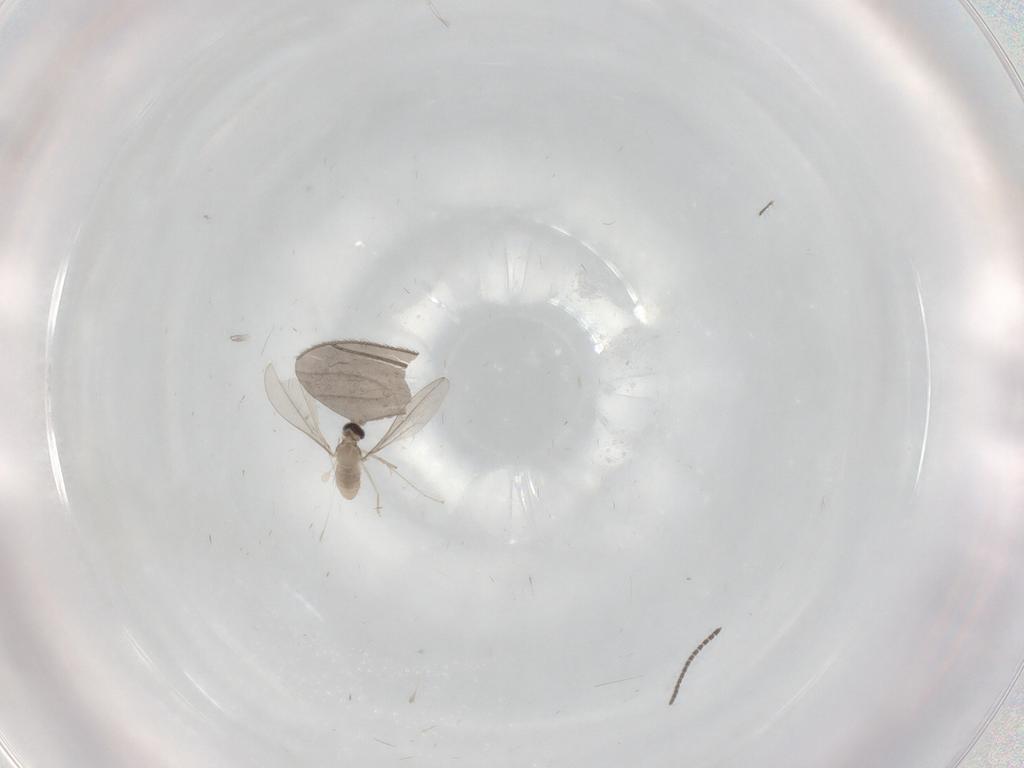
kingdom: Animalia
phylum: Arthropoda
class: Insecta
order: Diptera
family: Cecidomyiidae
